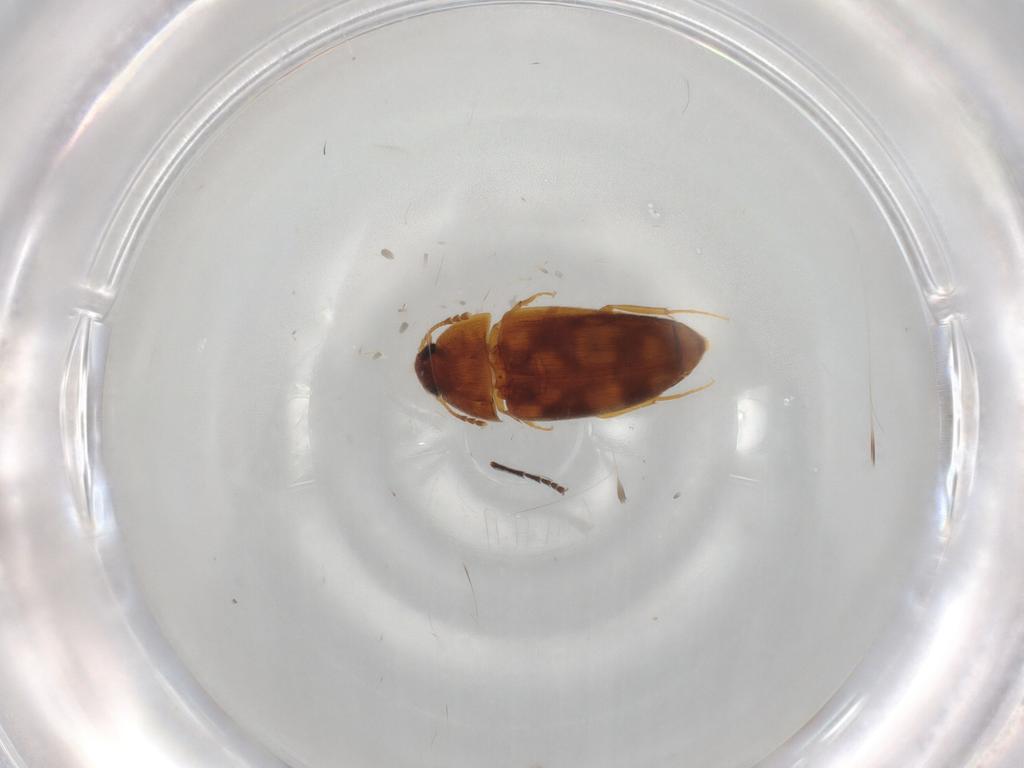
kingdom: Animalia
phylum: Arthropoda
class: Insecta
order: Coleoptera
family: Mycetophagidae
